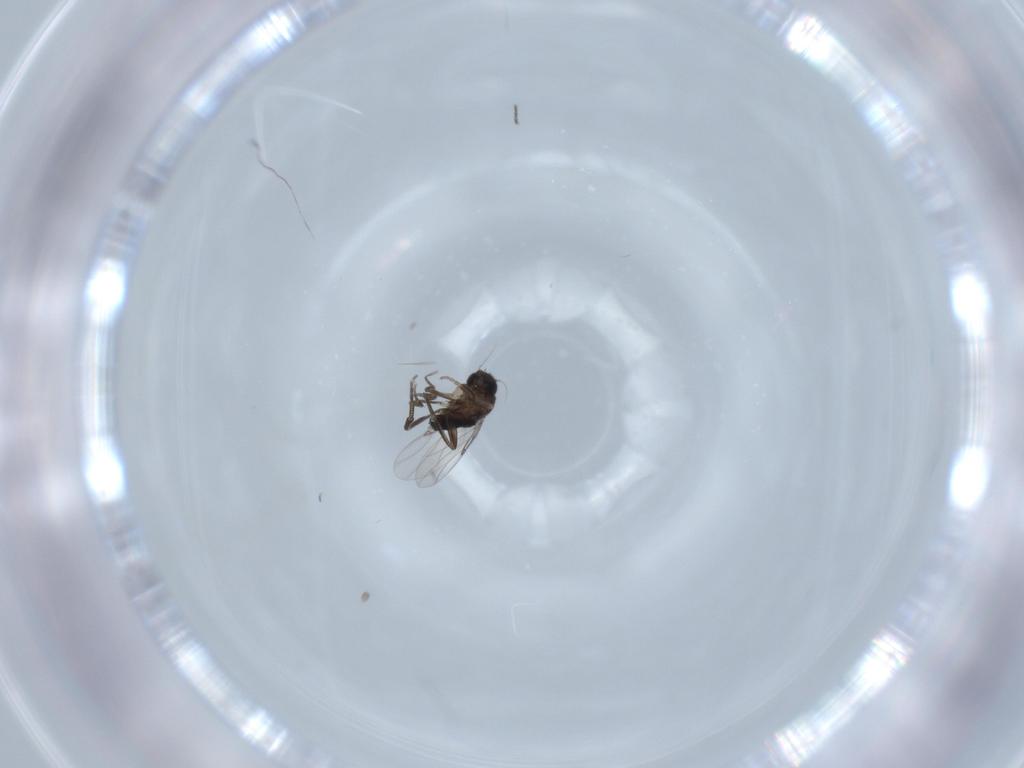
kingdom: Animalia
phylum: Arthropoda
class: Insecta
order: Diptera
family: Phoridae
